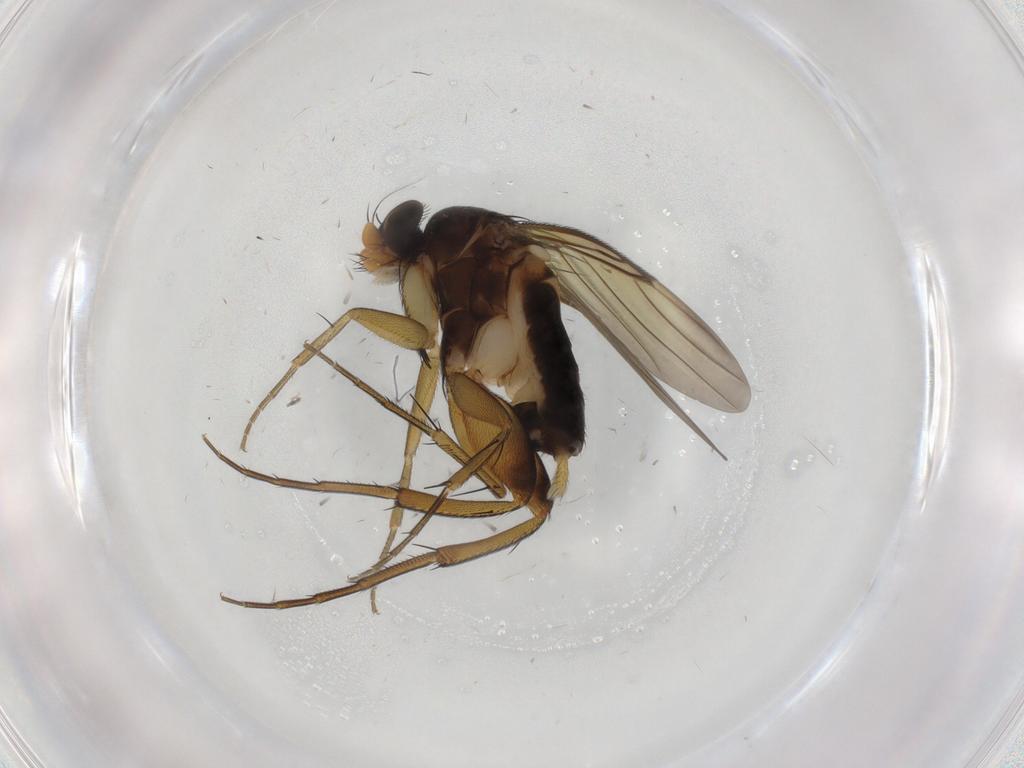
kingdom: Animalia
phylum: Arthropoda
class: Insecta
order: Diptera
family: Phoridae
